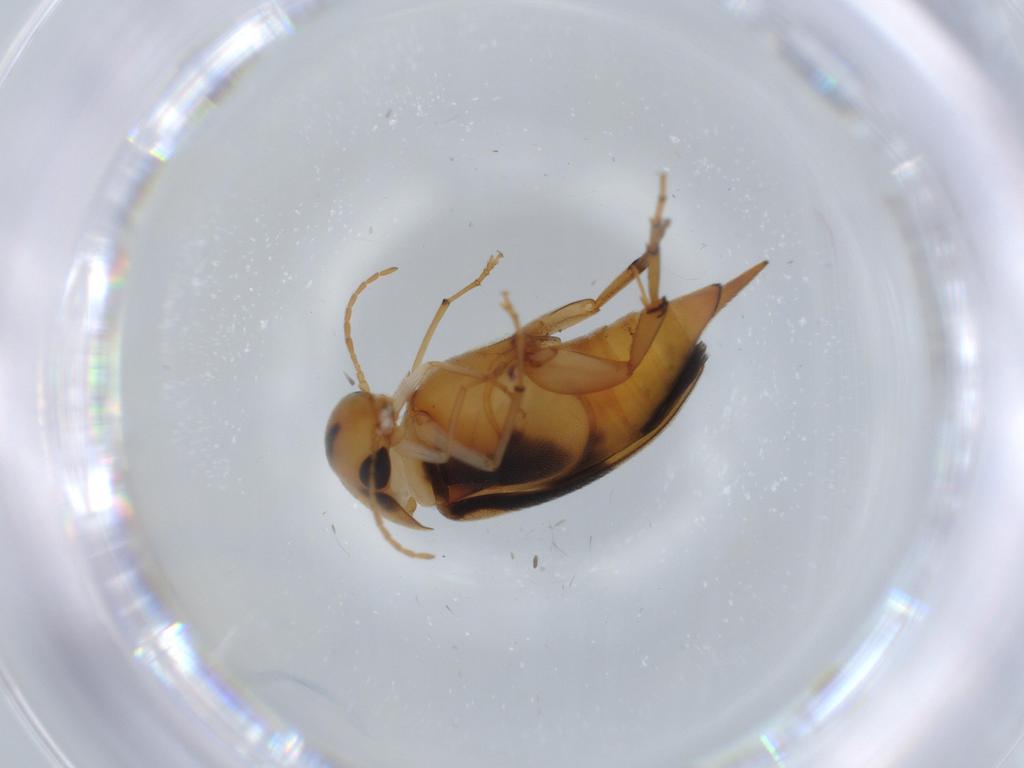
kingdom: Animalia
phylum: Arthropoda
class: Insecta
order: Coleoptera
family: Mordellidae
